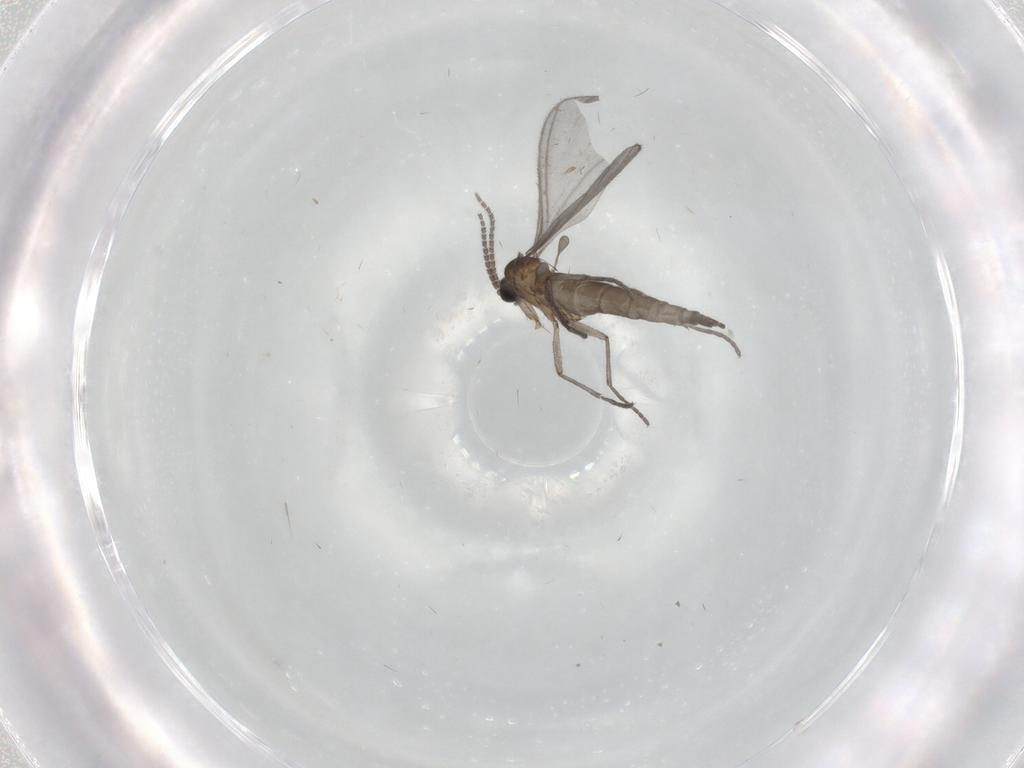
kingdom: Animalia
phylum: Arthropoda
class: Insecta
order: Diptera
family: Sciaridae
